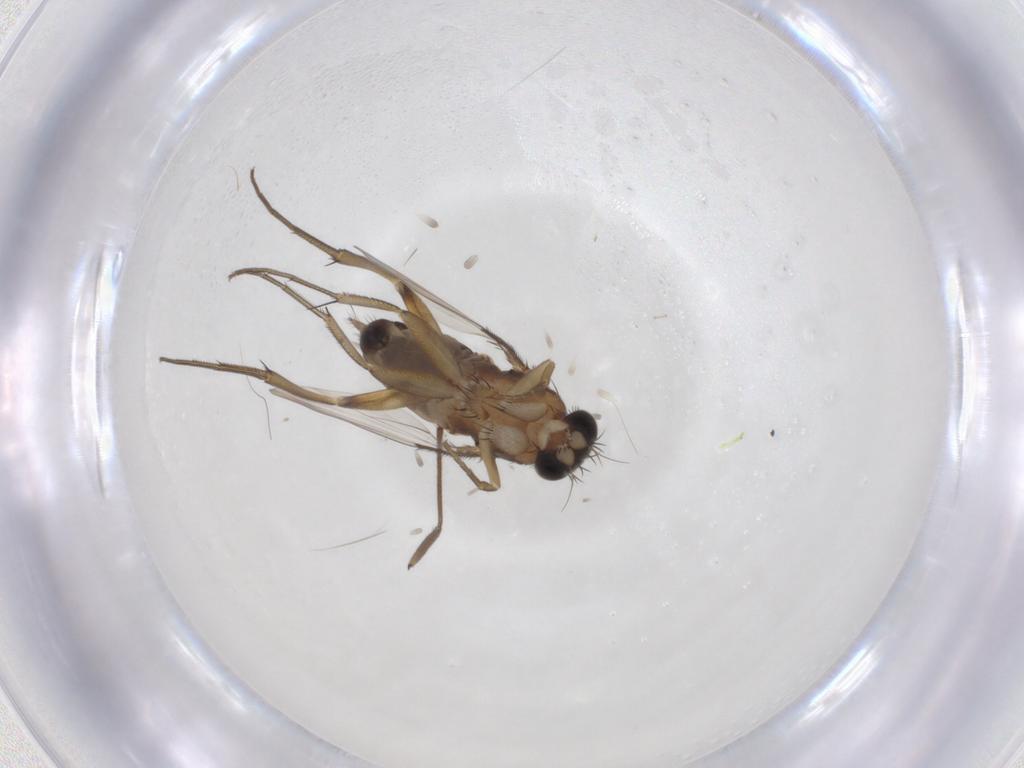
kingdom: Animalia
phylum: Arthropoda
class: Insecta
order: Diptera
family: Phoridae
